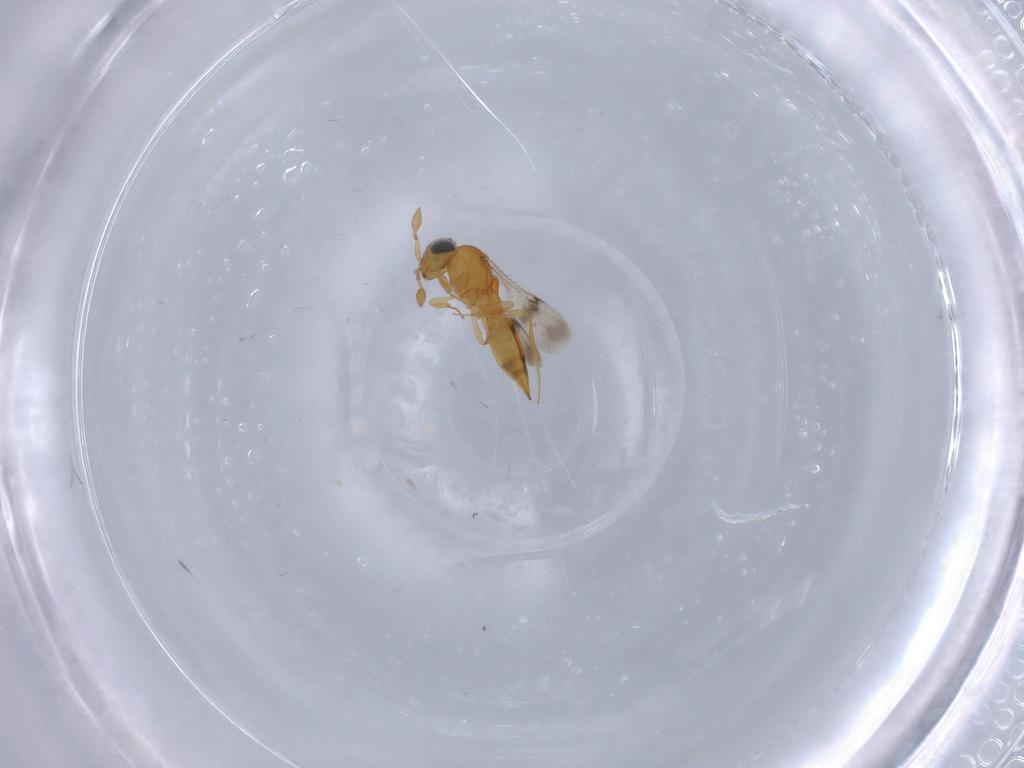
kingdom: Animalia
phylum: Arthropoda
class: Insecta
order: Hymenoptera
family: Scelionidae
